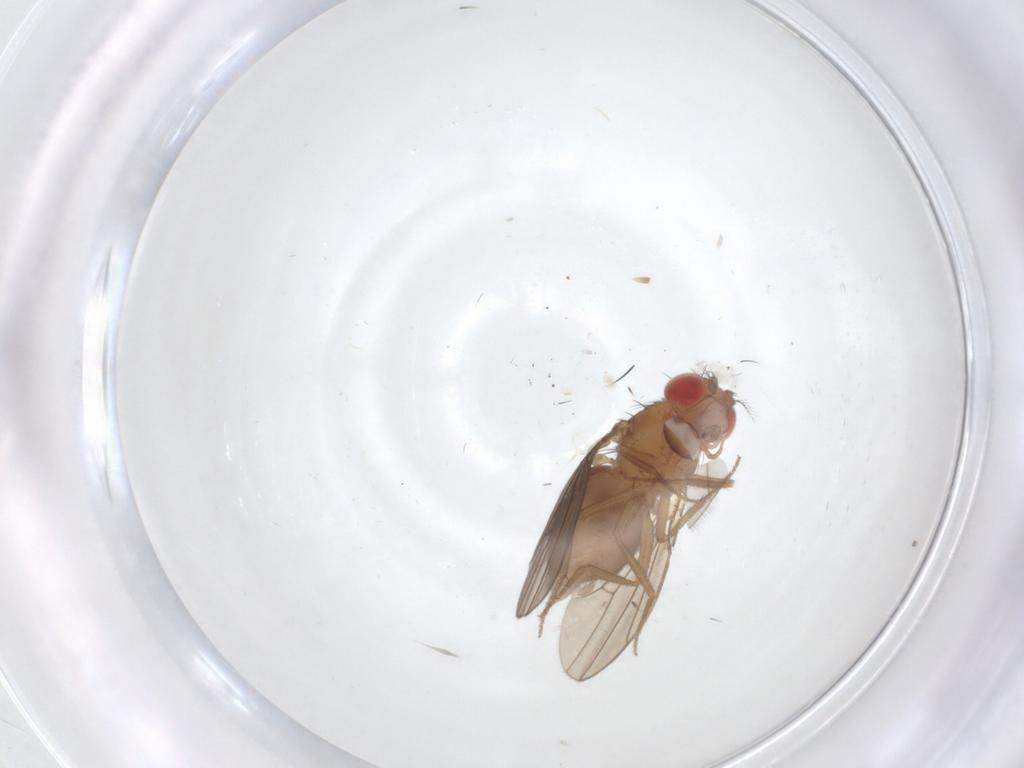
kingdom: Animalia
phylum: Arthropoda
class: Insecta
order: Diptera
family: Drosophilidae
